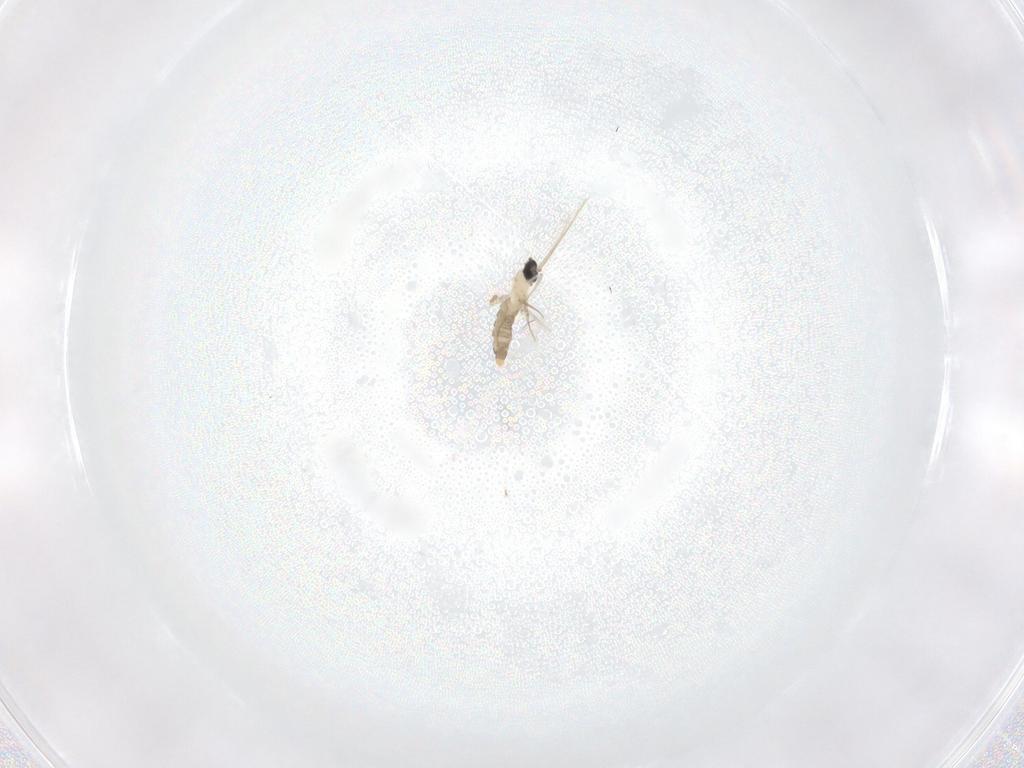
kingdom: Animalia
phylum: Arthropoda
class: Insecta
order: Diptera
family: Cecidomyiidae
